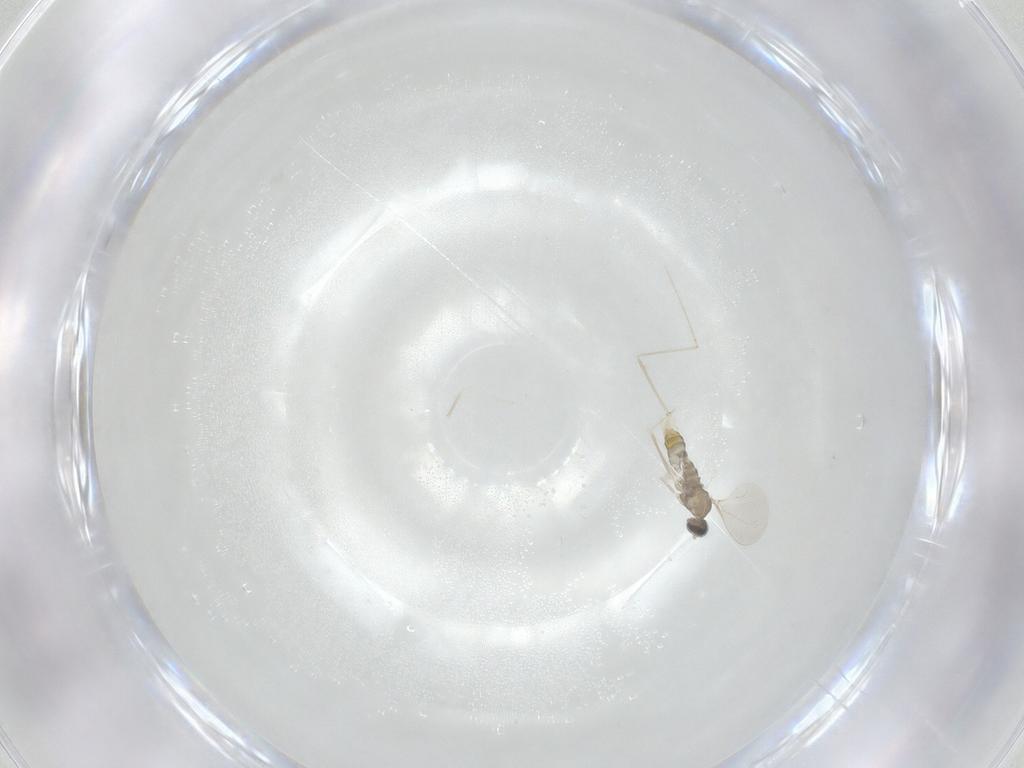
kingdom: Animalia
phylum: Arthropoda
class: Insecta
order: Diptera
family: Cecidomyiidae
